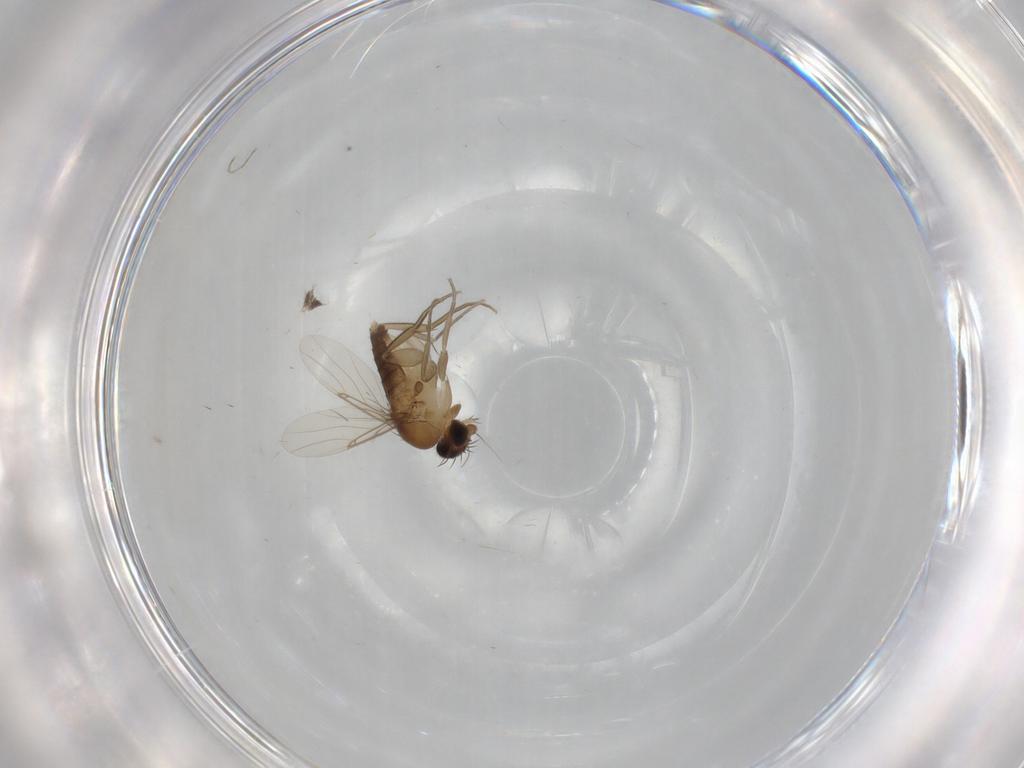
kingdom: Animalia
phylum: Arthropoda
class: Insecta
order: Diptera
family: Phoridae
